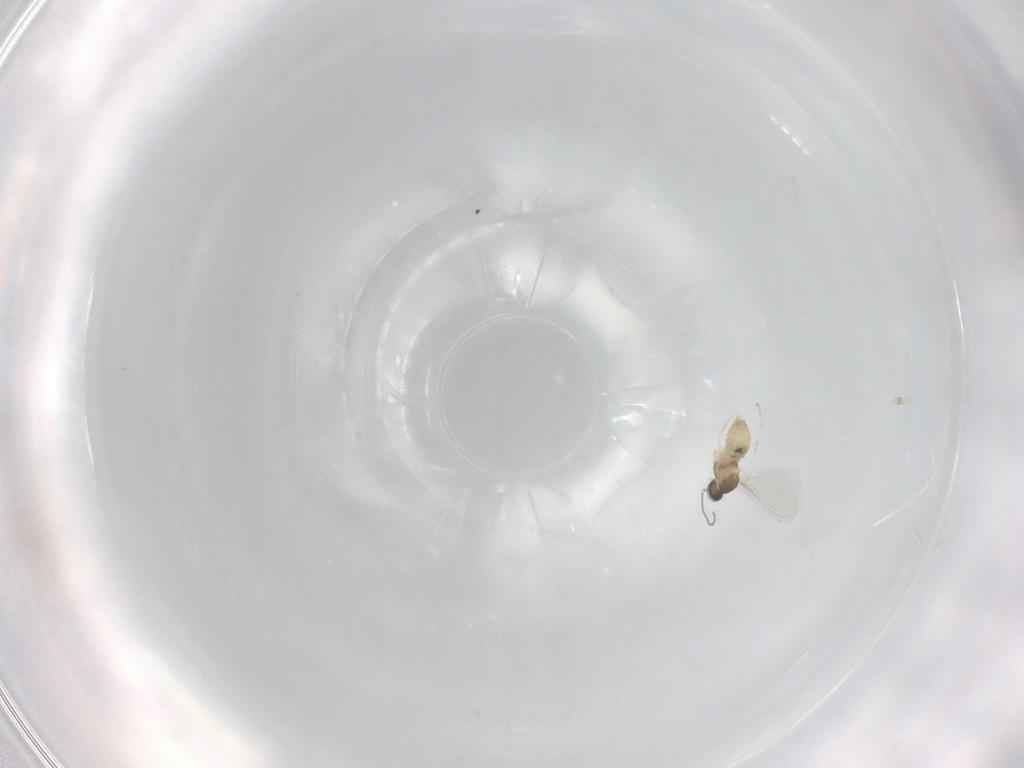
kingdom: Animalia
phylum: Arthropoda
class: Insecta
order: Diptera
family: Cecidomyiidae
